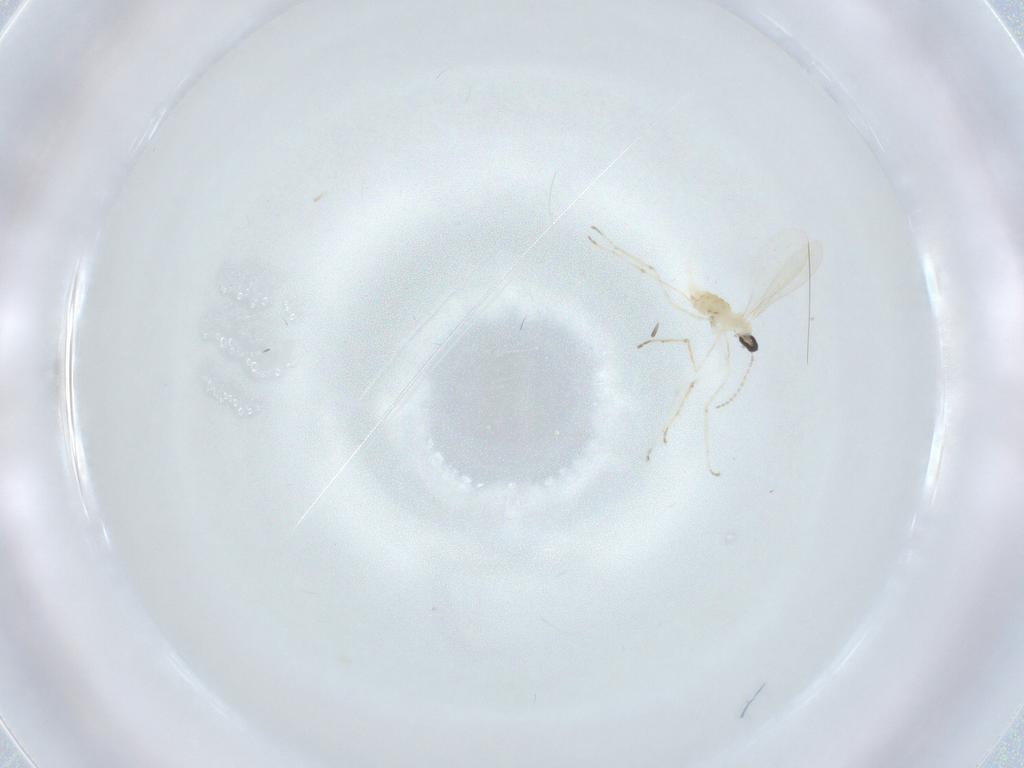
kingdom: Animalia
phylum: Arthropoda
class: Insecta
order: Diptera
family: Cecidomyiidae
